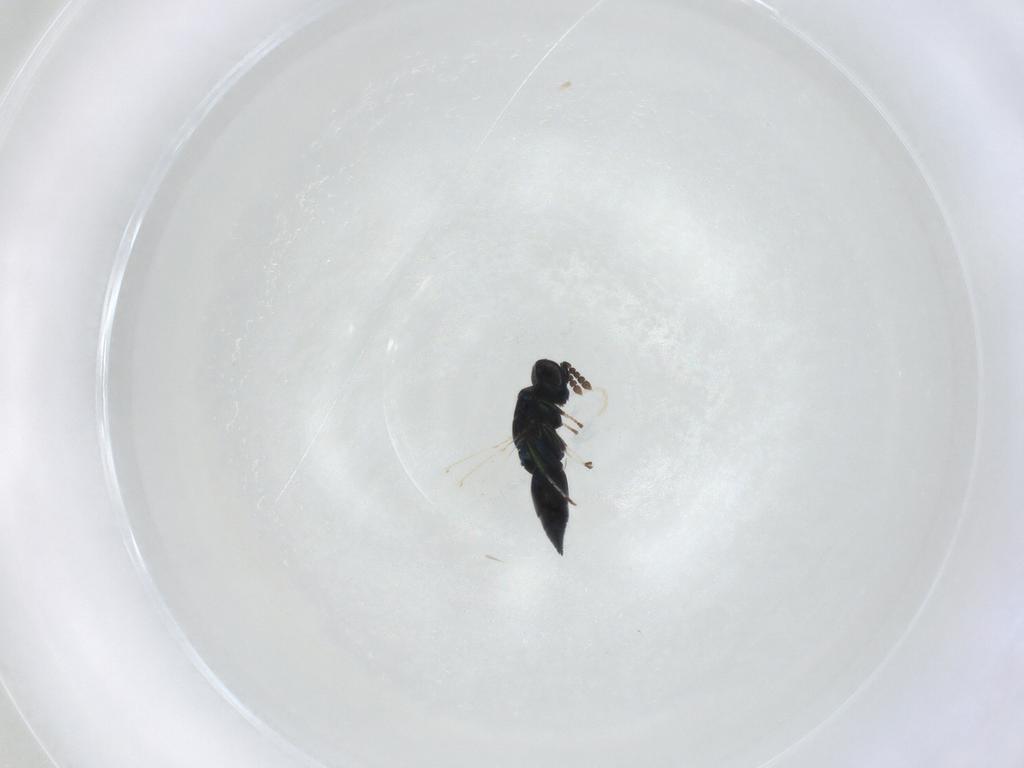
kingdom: Animalia
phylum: Arthropoda
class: Insecta
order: Hymenoptera
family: Eulophidae
